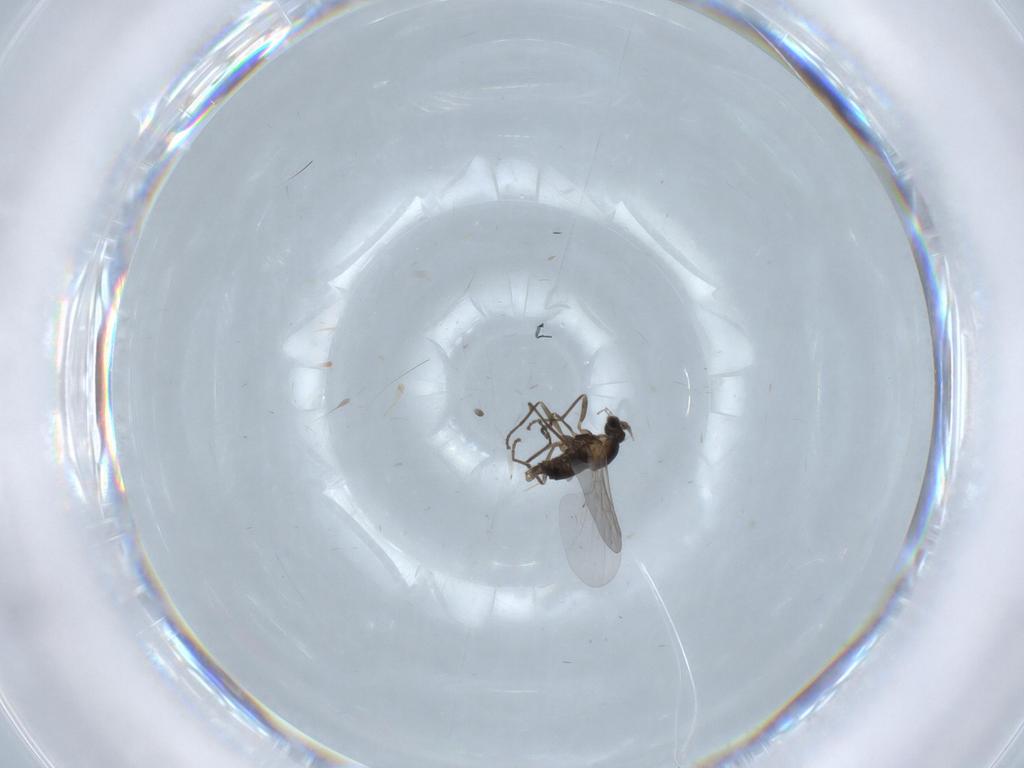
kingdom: Animalia
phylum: Arthropoda
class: Insecta
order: Diptera
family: Cecidomyiidae
